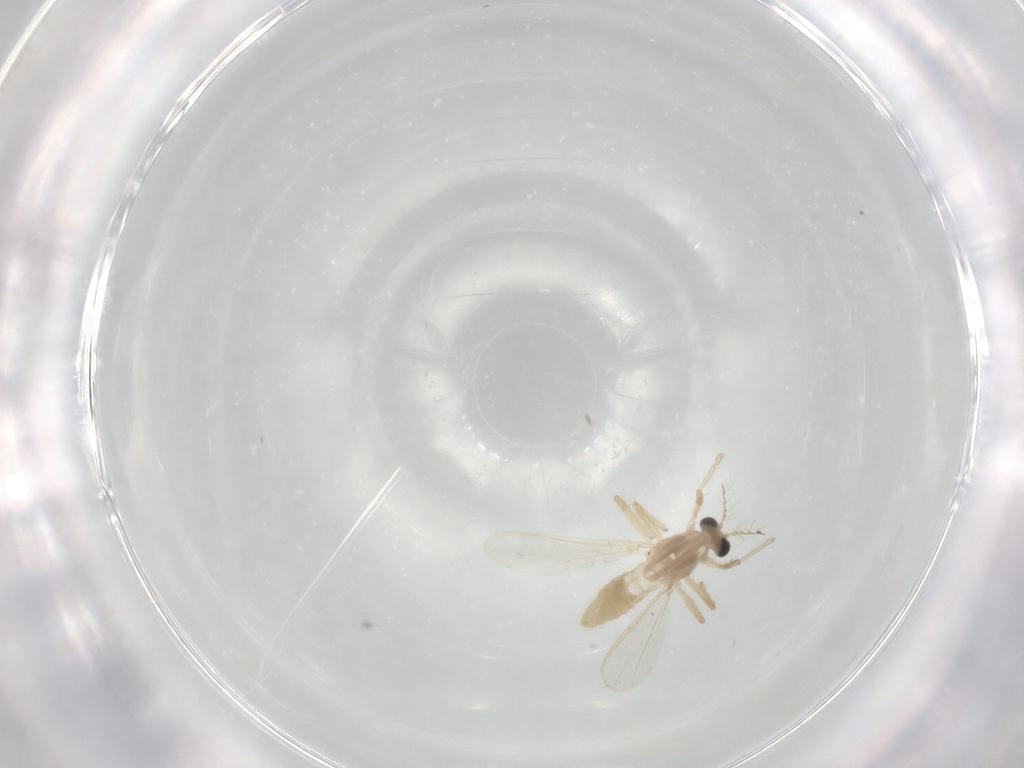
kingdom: Animalia
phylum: Arthropoda
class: Insecta
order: Diptera
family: Chironomidae
